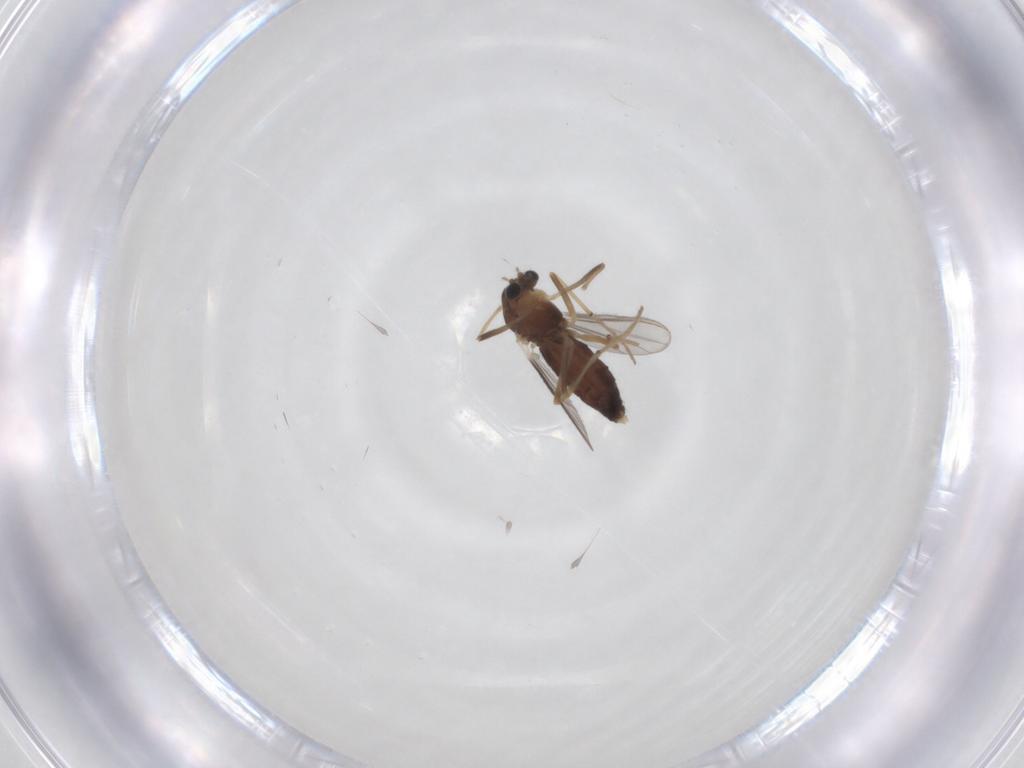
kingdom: Animalia
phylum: Arthropoda
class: Insecta
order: Diptera
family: Chironomidae
